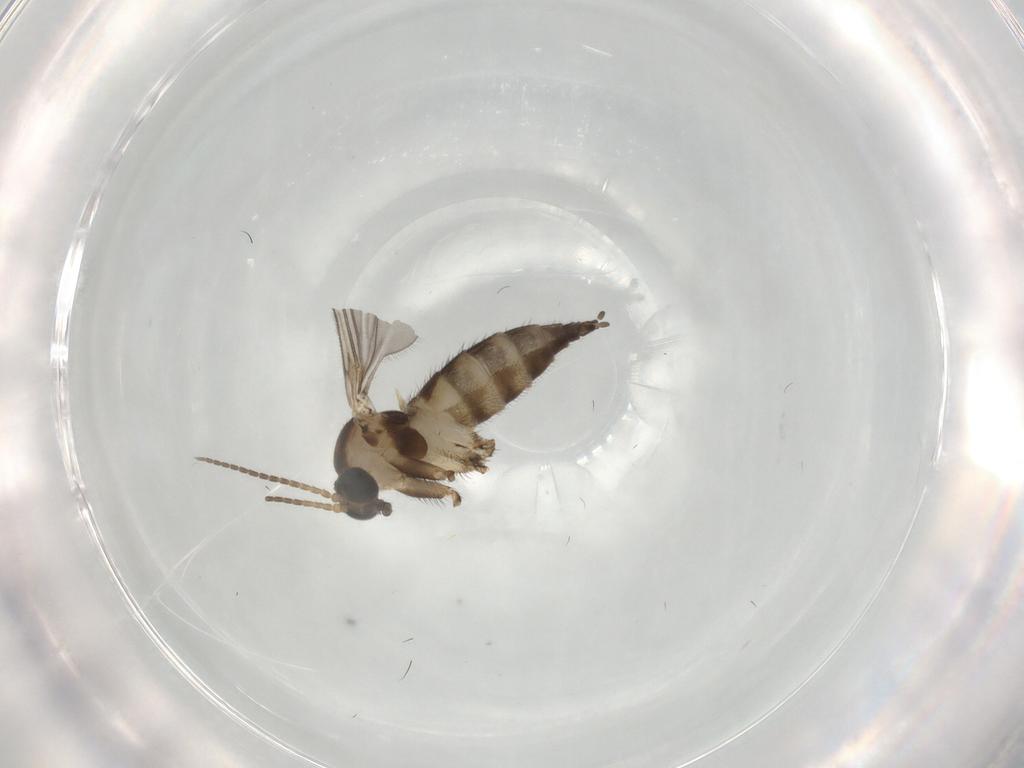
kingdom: Animalia
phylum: Arthropoda
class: Insecta
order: Diptera
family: Sciaridae
